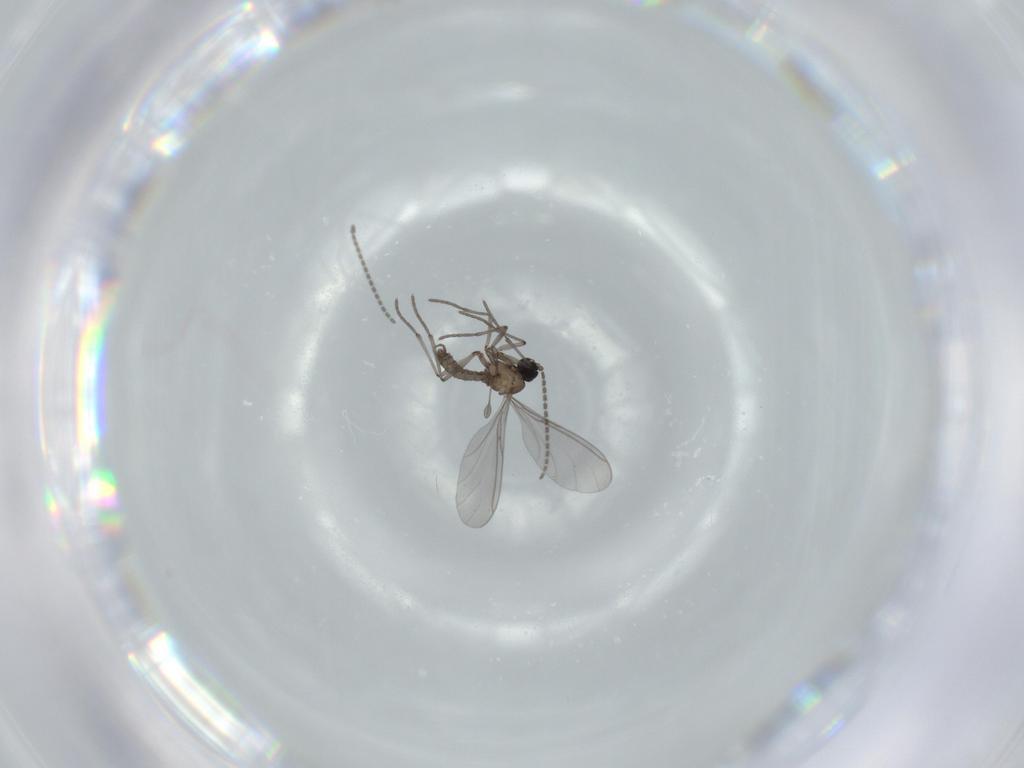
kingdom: Animalia
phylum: Arthropoda
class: Insecta
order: Diptera
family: Sciaridae
